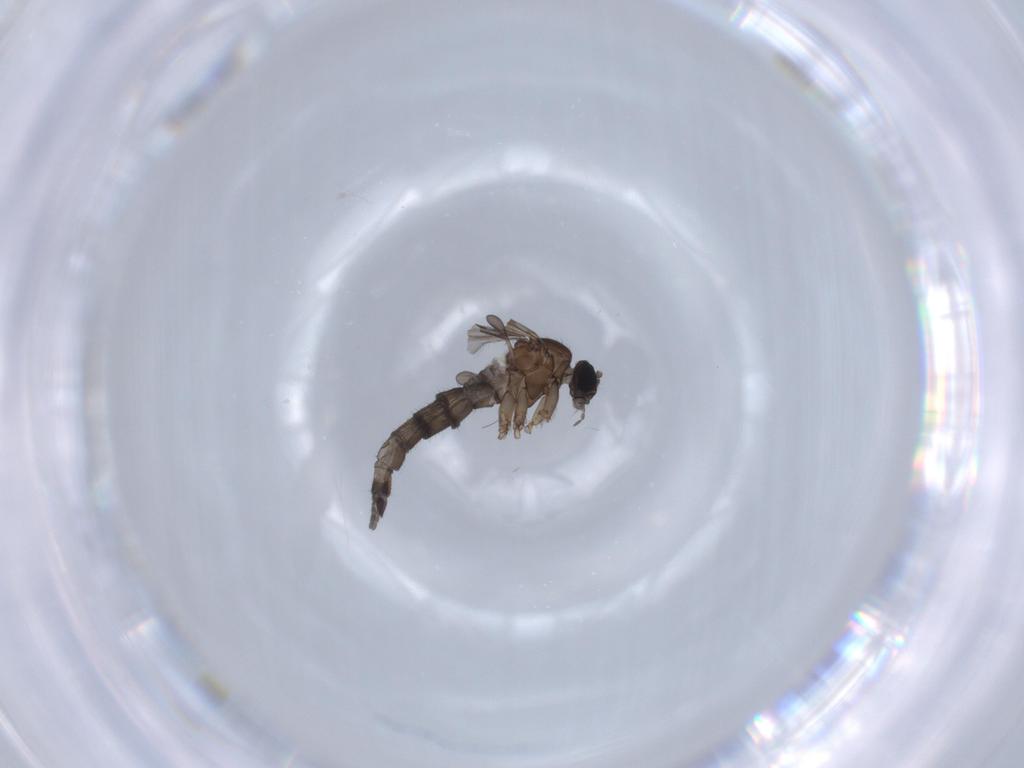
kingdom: Animalia
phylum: Arthropoda
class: Insecta
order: Diptera
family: Sciaridae
